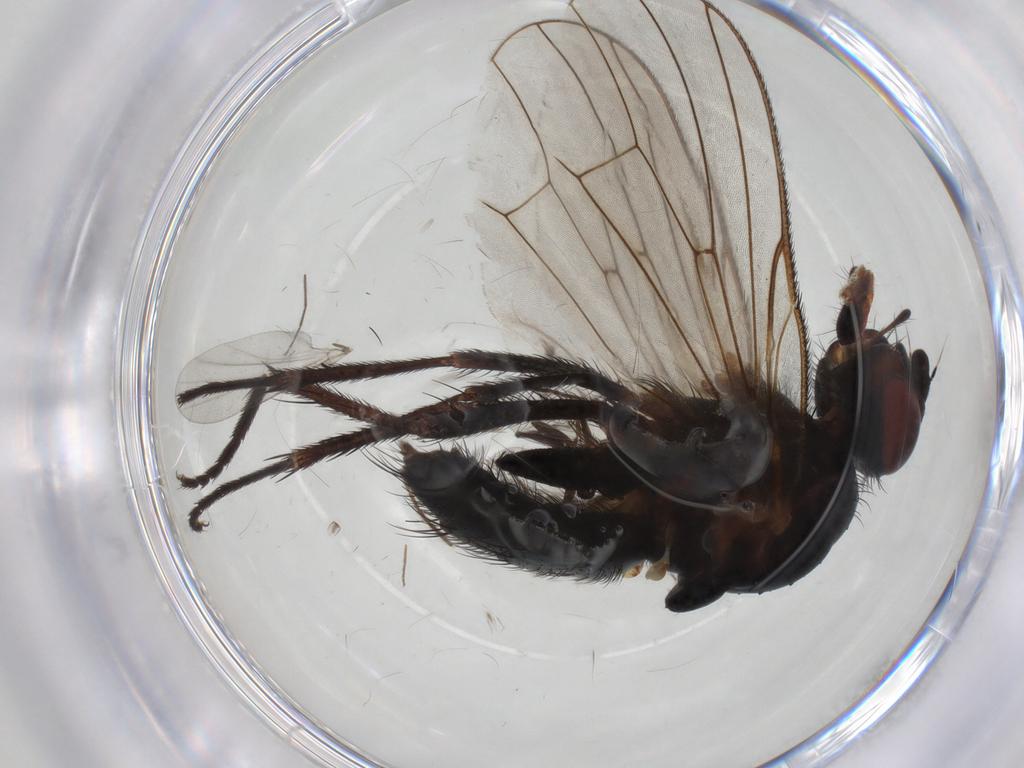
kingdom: Animalia
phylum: Arthropoda
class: Insecta
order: Diptera
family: Anthomyiidae
